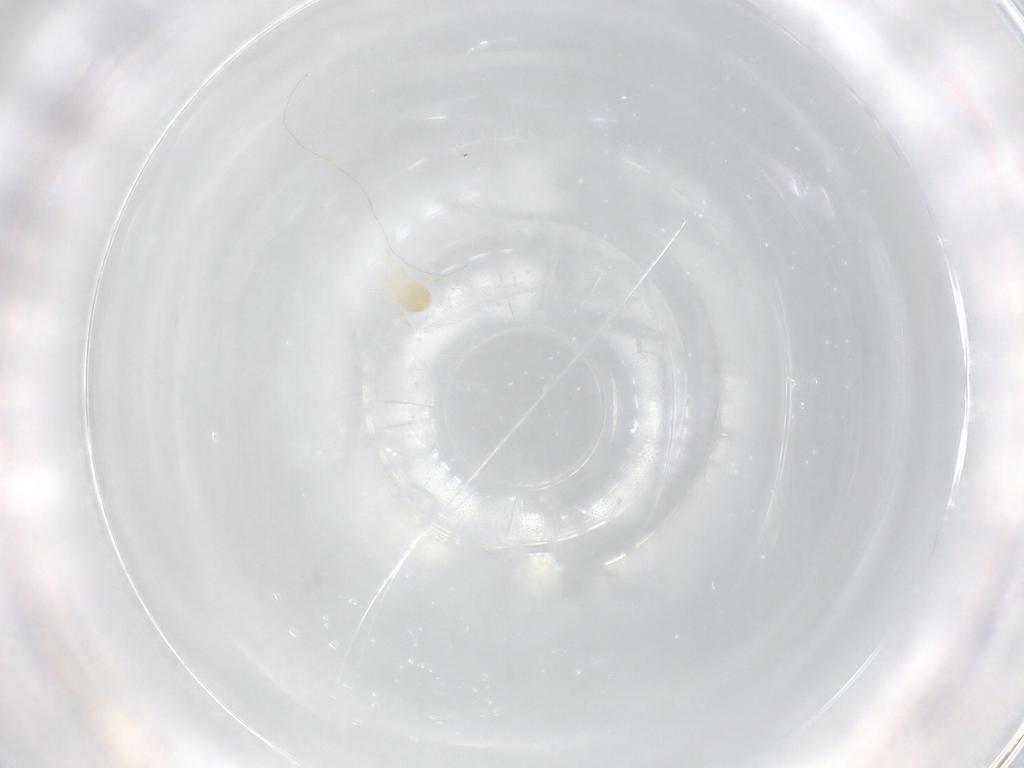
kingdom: Animalia
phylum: Arthropoda
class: Arachnida
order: Mesostigmata
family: Phytoseiidae
